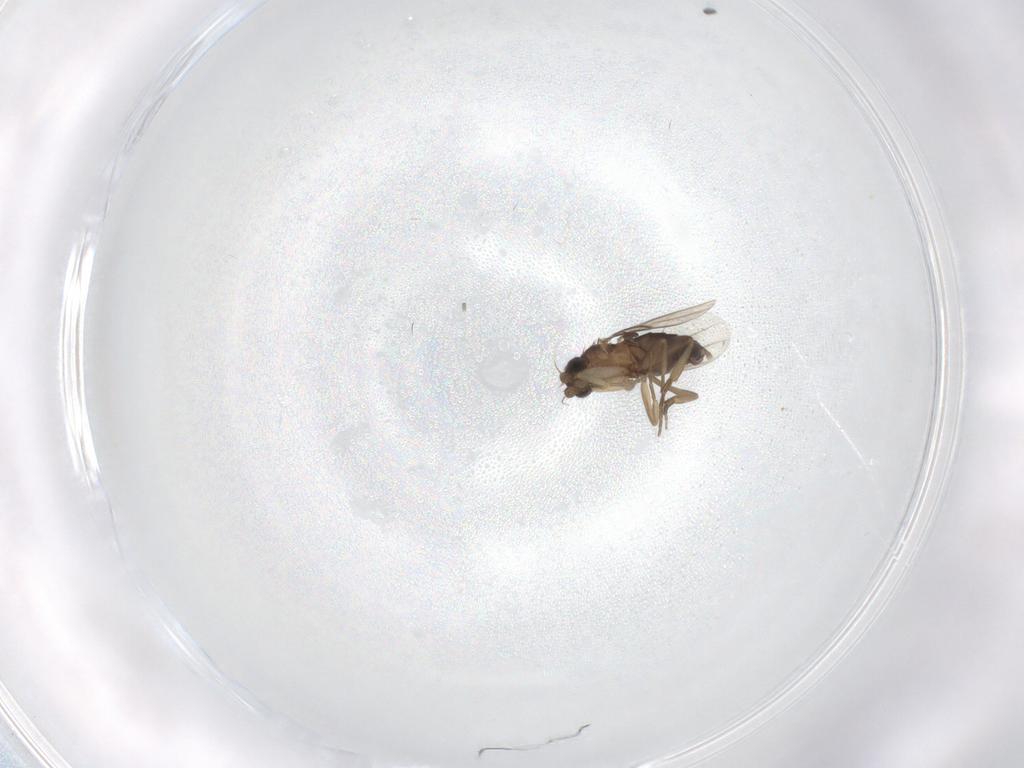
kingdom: Animalia
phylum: Arthropoda
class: Insecta
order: Diptera
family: Phoridae
